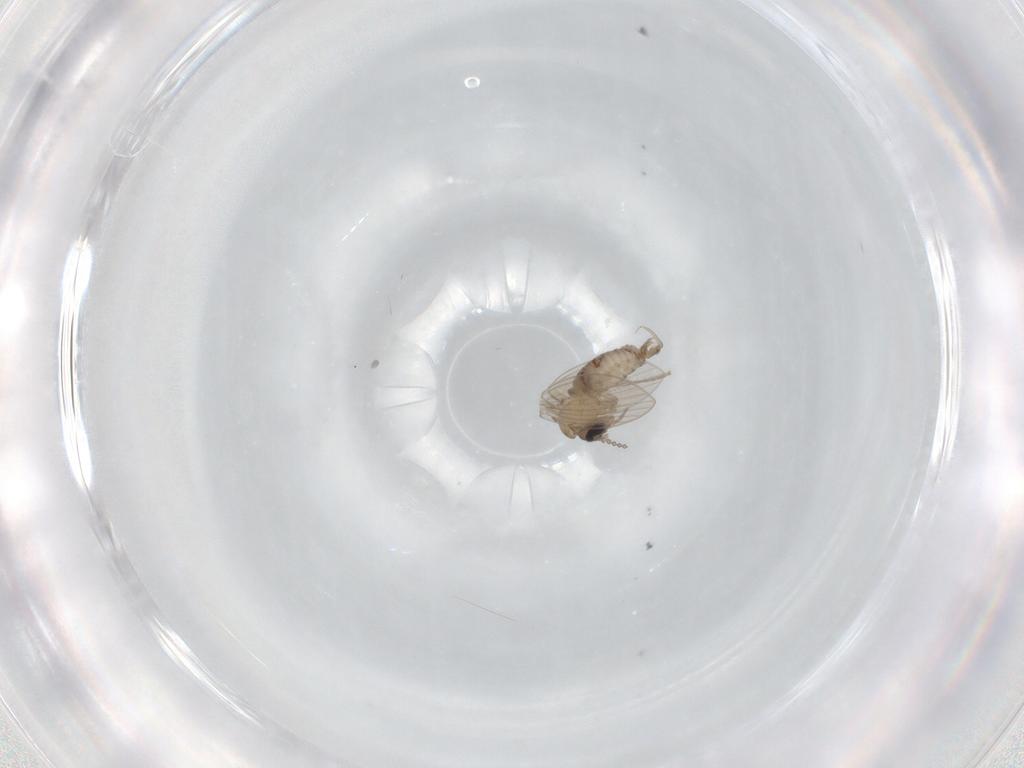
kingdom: Animalia
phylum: Arthropoda
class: Insecta
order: Diptera
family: Psychodidae
